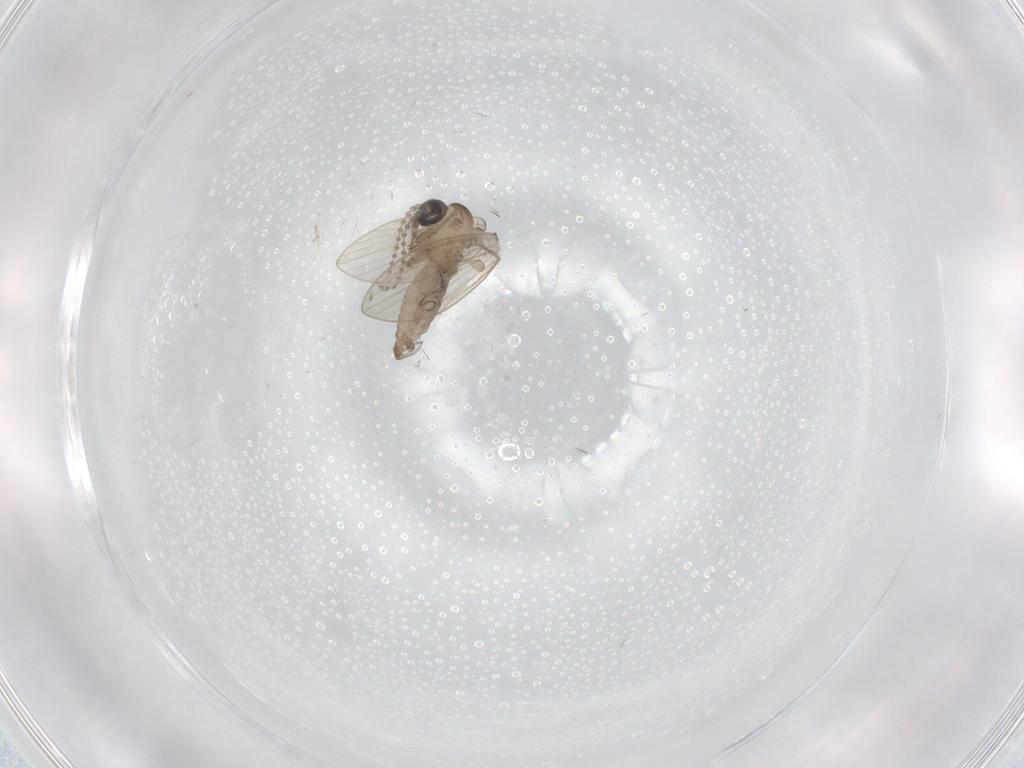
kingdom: Animalia
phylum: Arthropoda
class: Insecta
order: Diptera
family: Psychodidae
